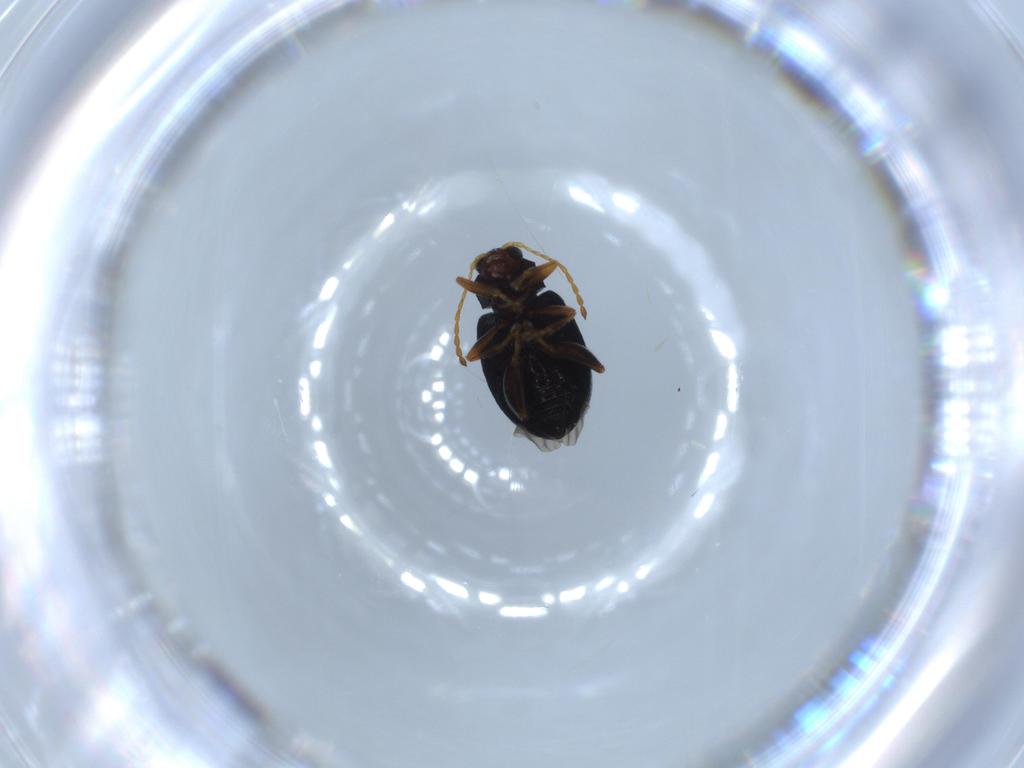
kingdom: Animalia
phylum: Arthropoda
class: Insecta
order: Coleoptera
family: Chrysomelidae
